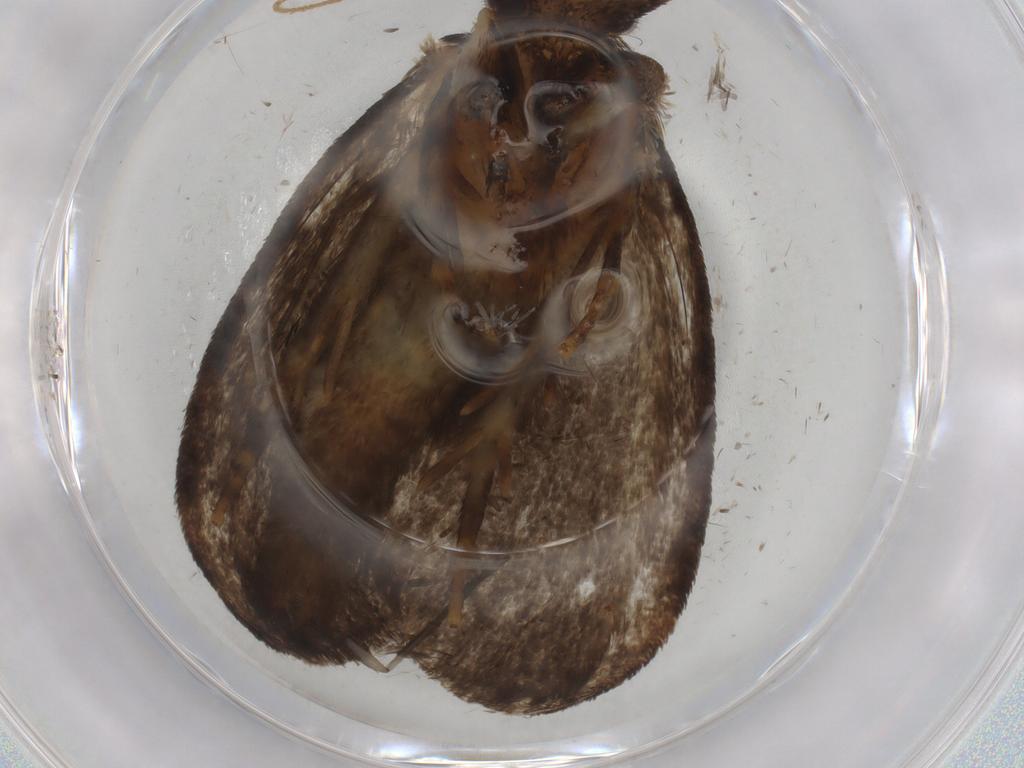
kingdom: Animalia
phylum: Arthropoda
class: Insecta
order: Lepidoptera
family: Tineidae
